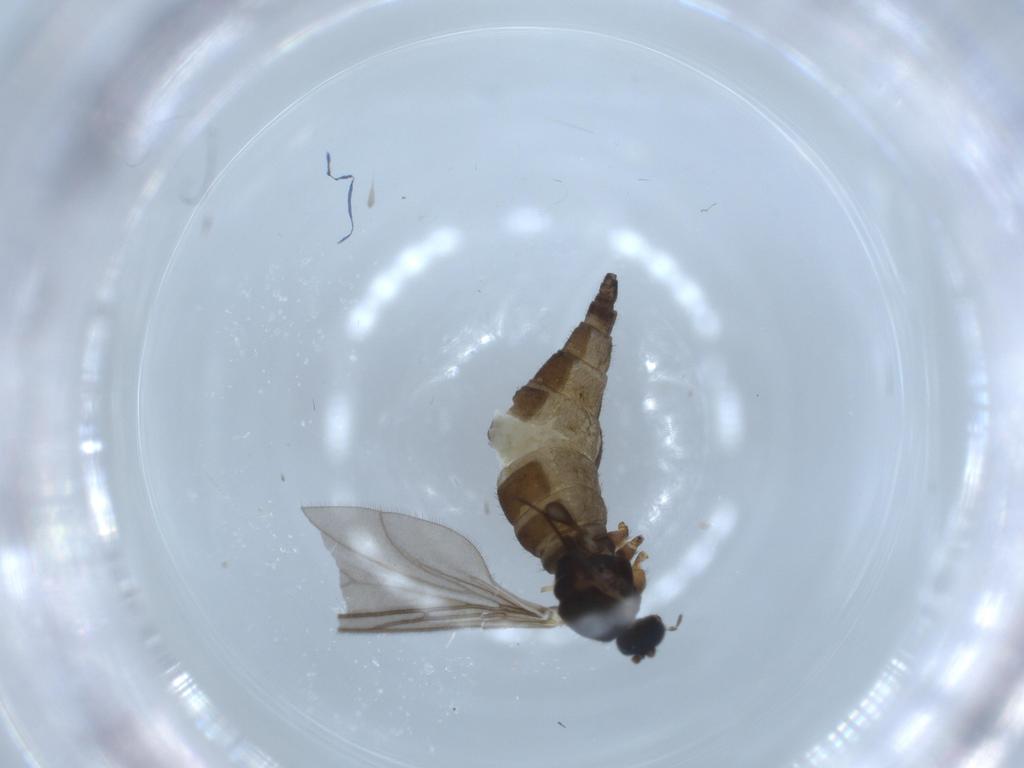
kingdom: Animalia
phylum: Arthropoda
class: Insecta
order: Diptera
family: Sciaridae
